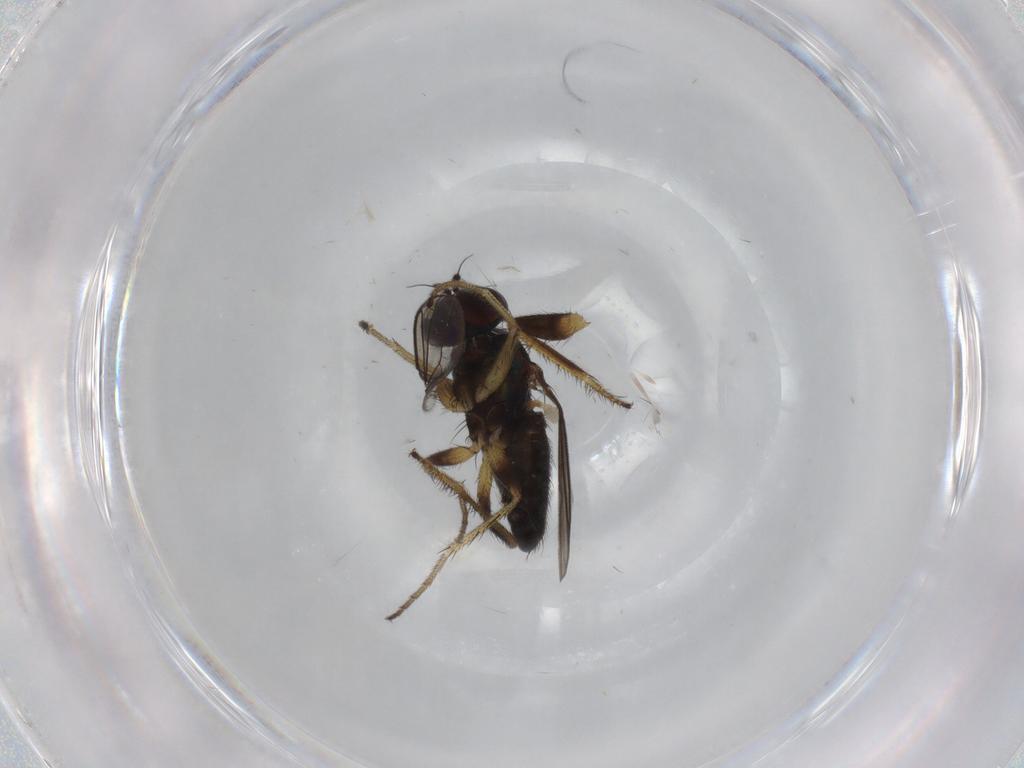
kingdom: Animalia
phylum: Arthropoda
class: Insecta
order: Diptera
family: Dolichopodidae
